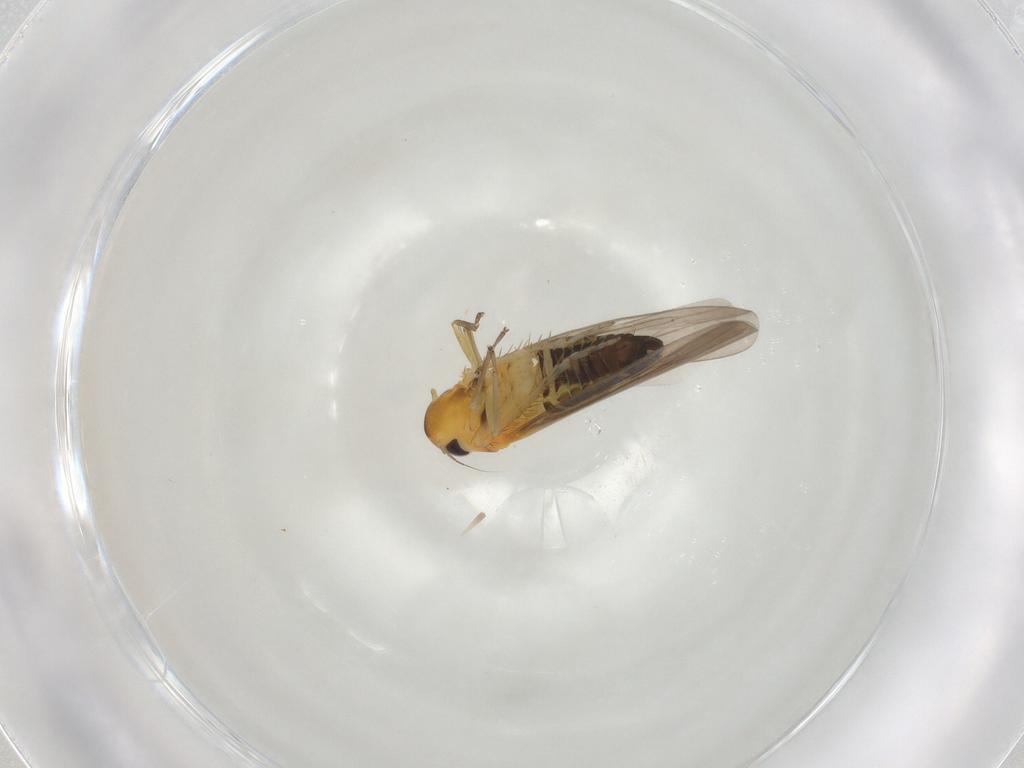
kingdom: Animalia
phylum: Arthropoda
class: Insecta
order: Hemiptera
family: Cicadellidae
